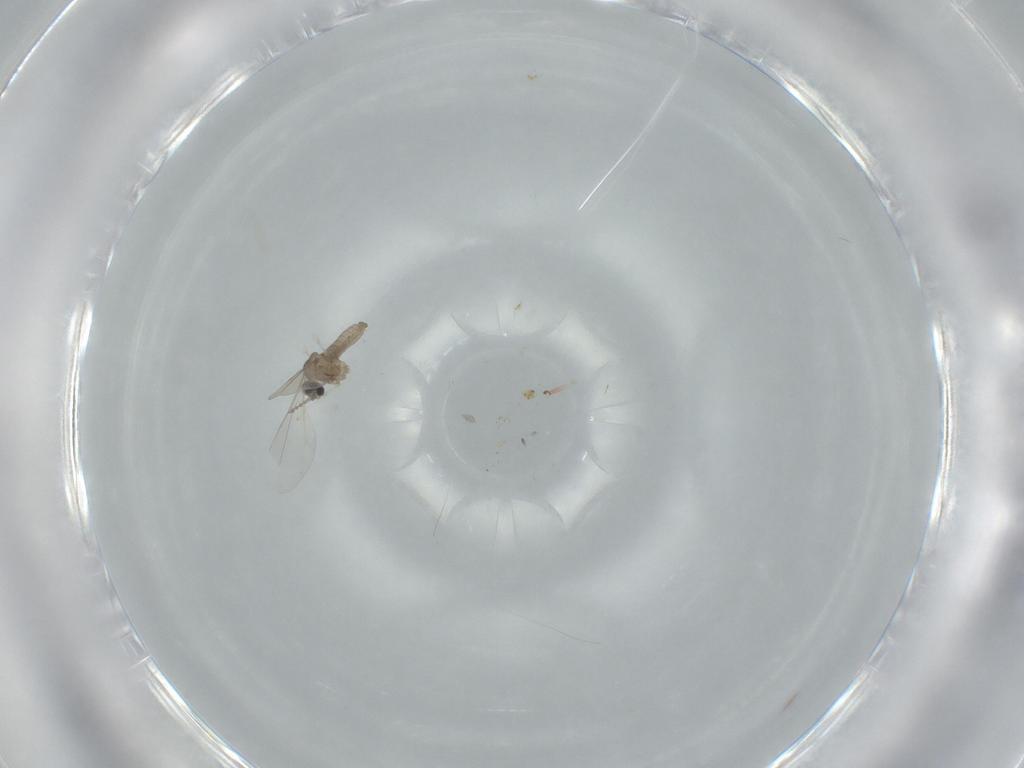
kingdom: Animalia
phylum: Arthropoda
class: Insecta
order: Diptera
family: Cecidomyiidae
